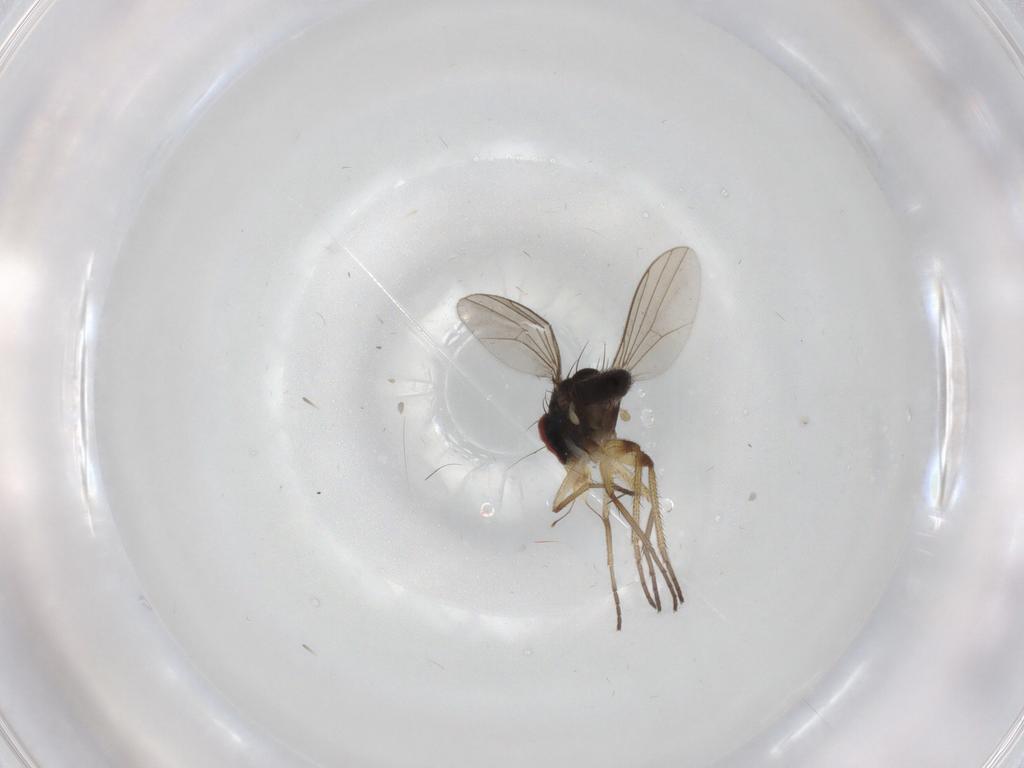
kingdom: Animalia
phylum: Arthropoda
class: Insecta
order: Diptera
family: Dolichopodidae
